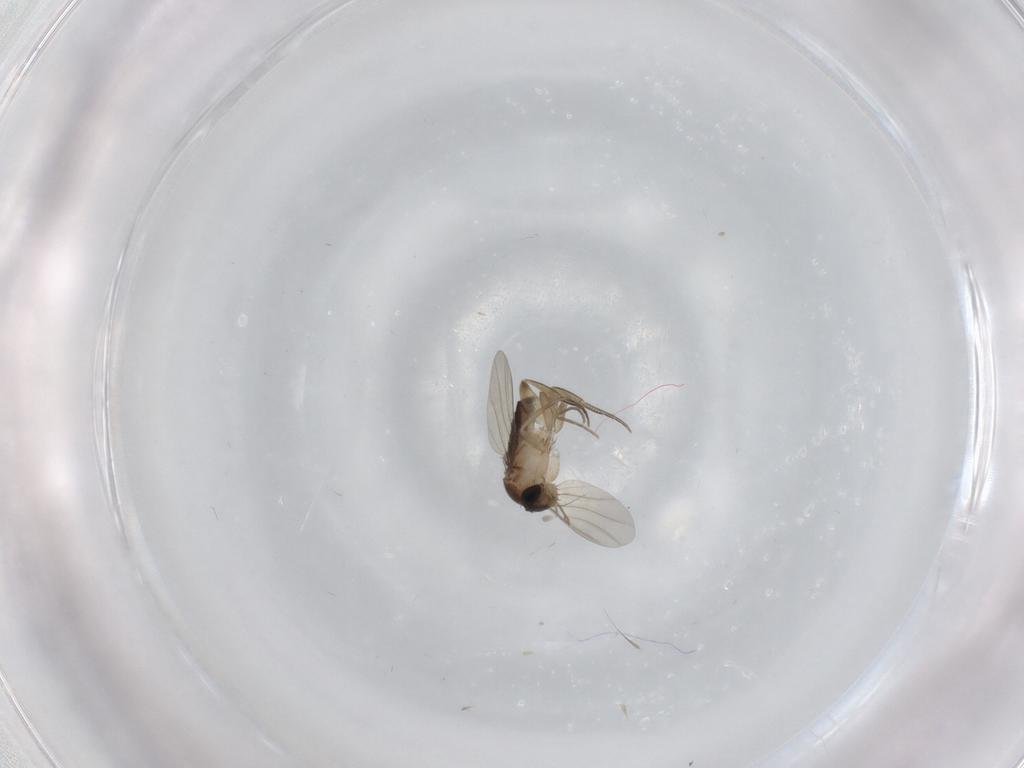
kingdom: Animalia
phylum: Arthropoda
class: Insecta
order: Diptera
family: Phoridae
